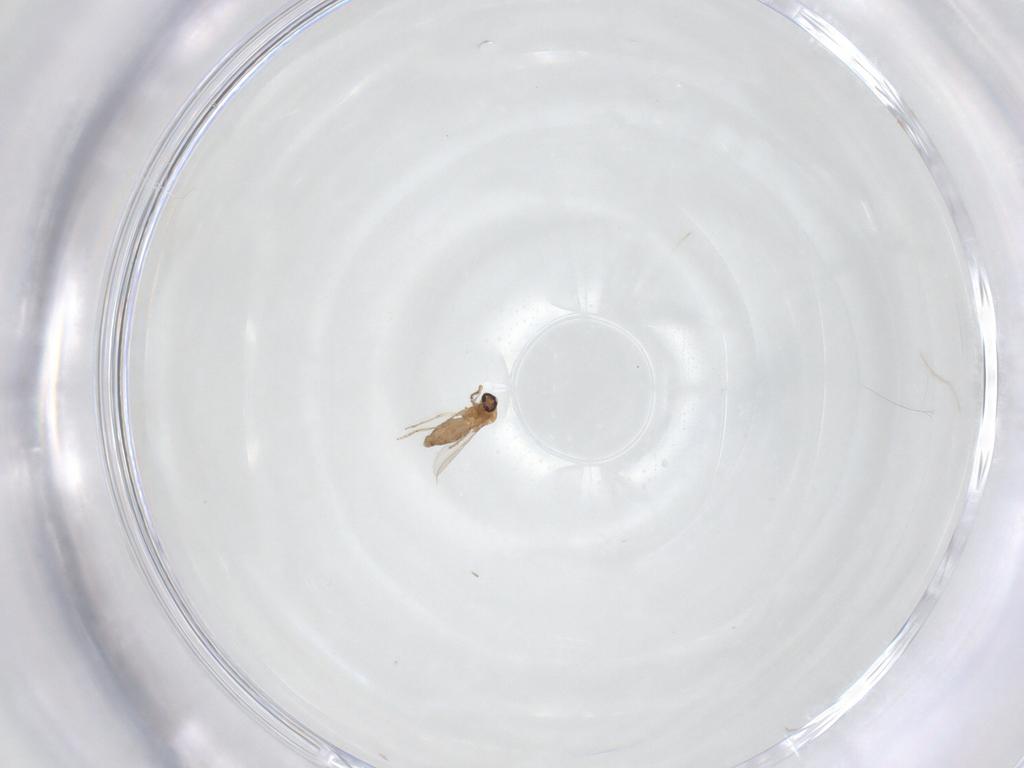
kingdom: Animalia
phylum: Arthropoda
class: Insecta
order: Diptera
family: Ceratopogonidae
